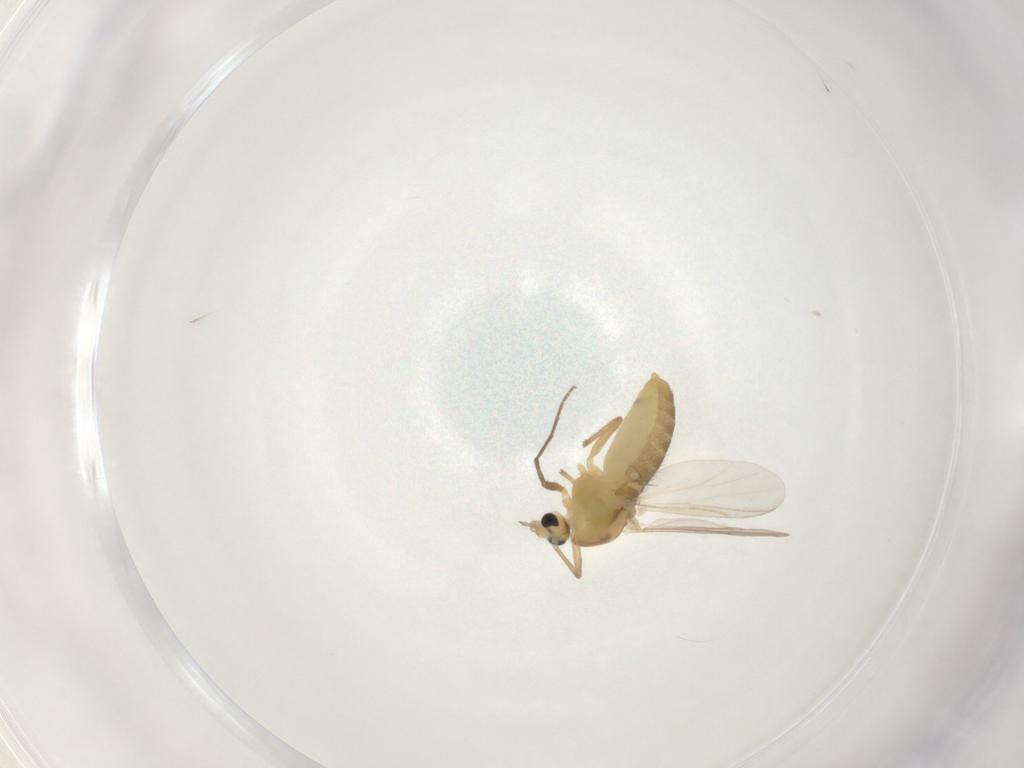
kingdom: Animalia
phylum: Arthropoda
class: Insecta
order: Diptera
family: Chironomidae
